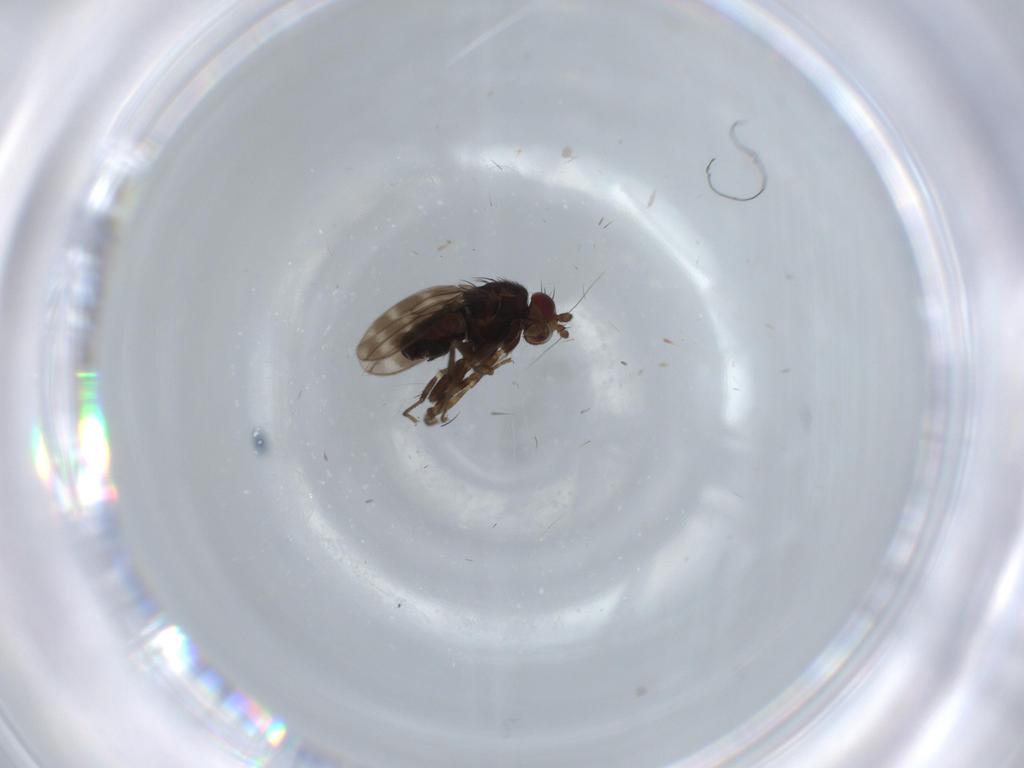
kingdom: Animalia
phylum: Arthropoda
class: Insecta
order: Diptera
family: Sphaeroceridae
